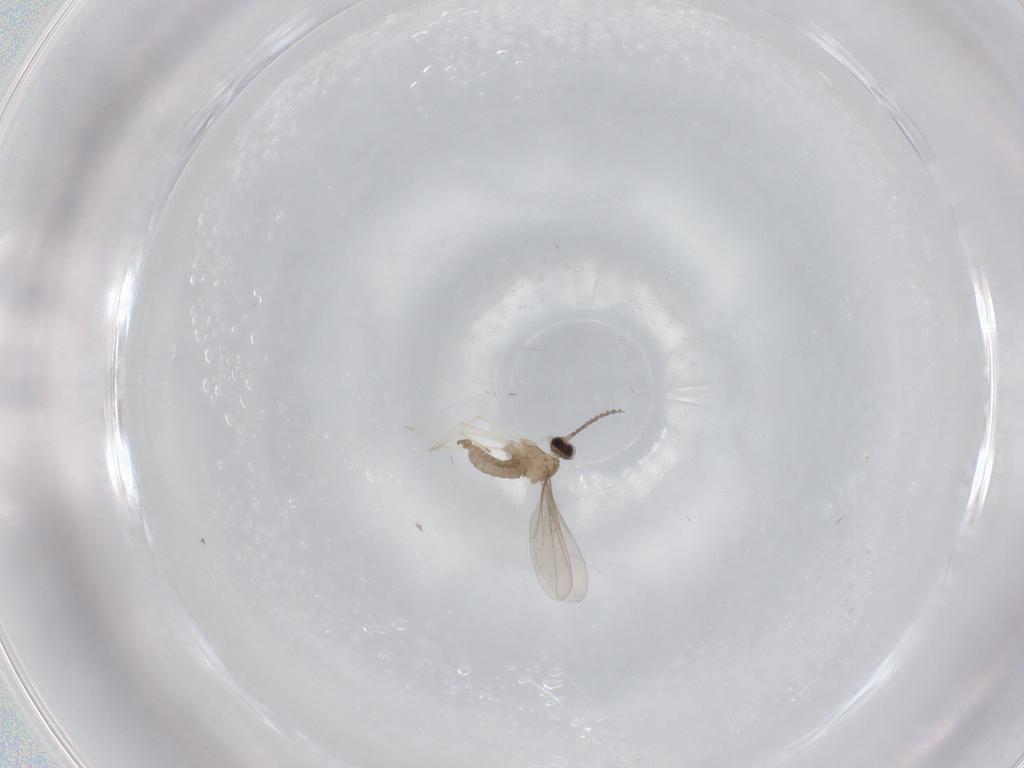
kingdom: Animalia
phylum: Arthropoda
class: Insecta
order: Diptera
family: Cecidomyiidae
